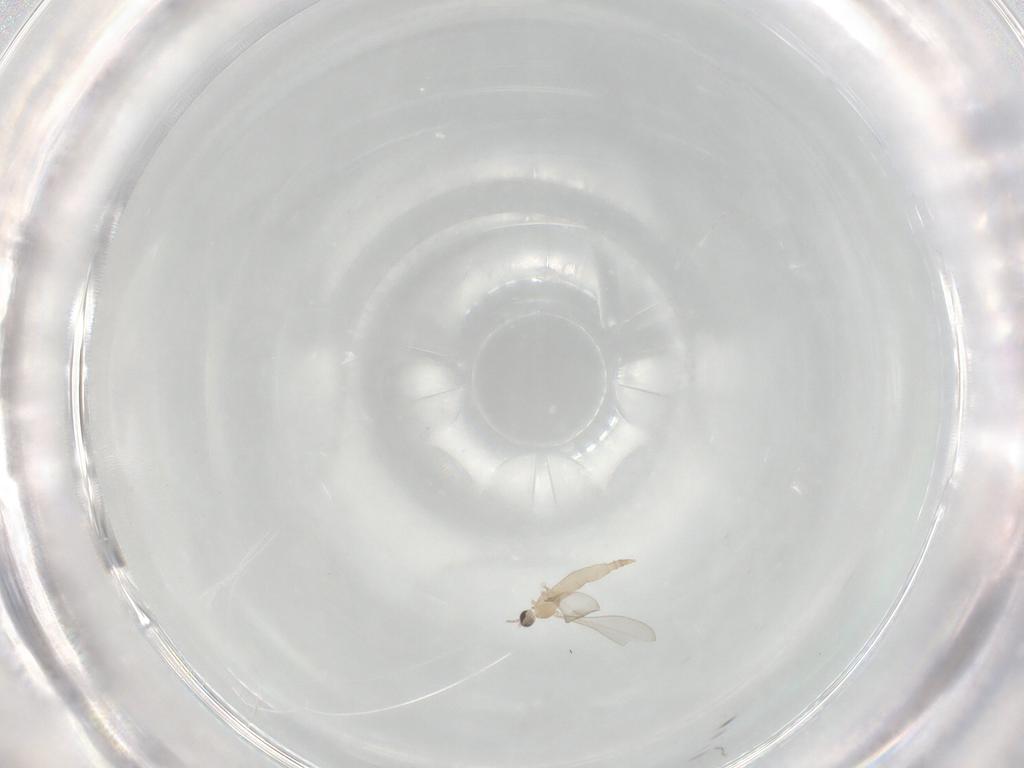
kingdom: Animalia
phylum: Arthropoda
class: Insecta
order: Diptera
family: Cecidomyiidae
